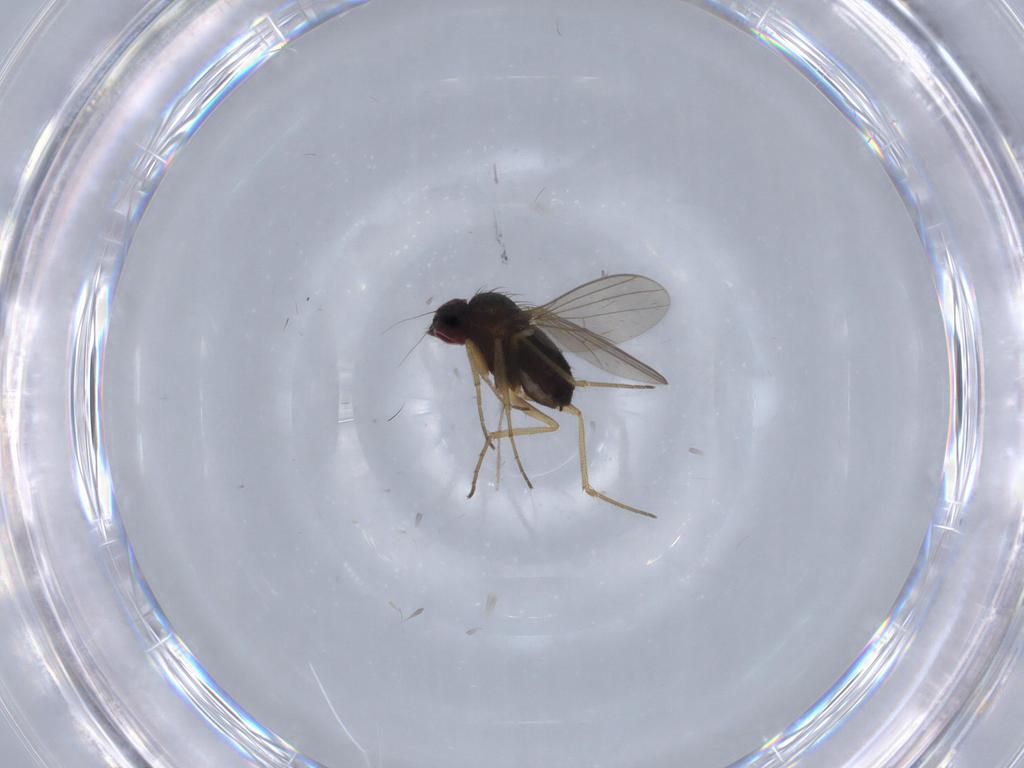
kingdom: Animalia
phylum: Arthropoda
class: Insecta
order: Diptera
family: Dolichopodidae
